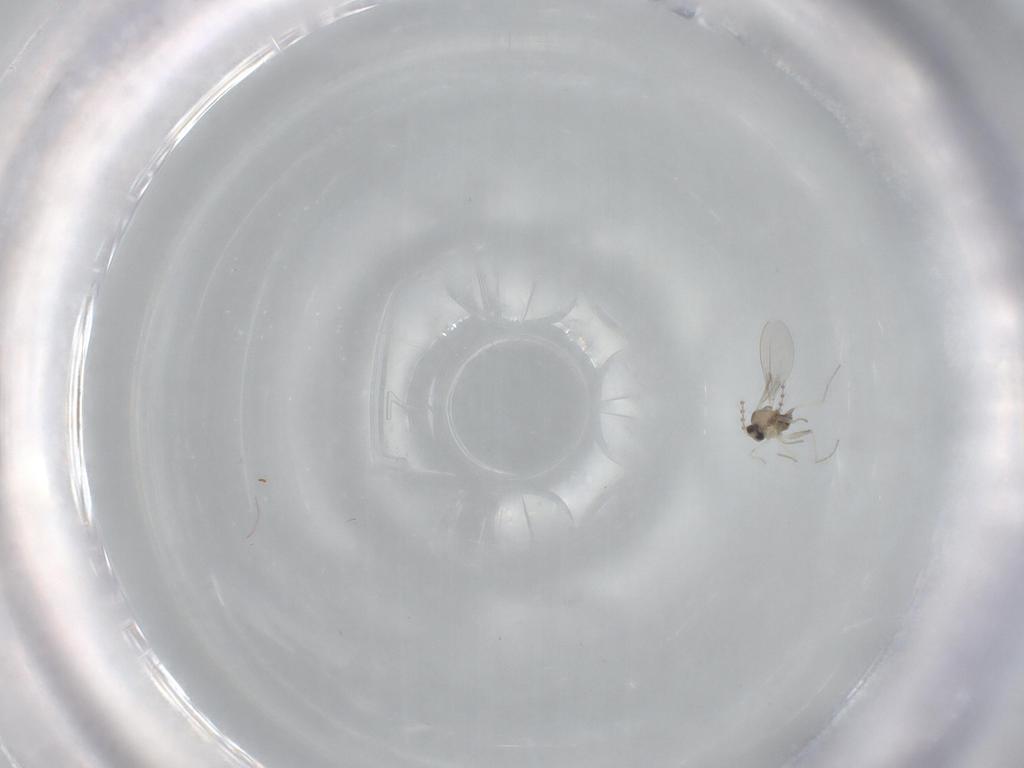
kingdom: Animalia
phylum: Arthropoda
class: Insecta
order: Diptera
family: Cecidomyiidae
